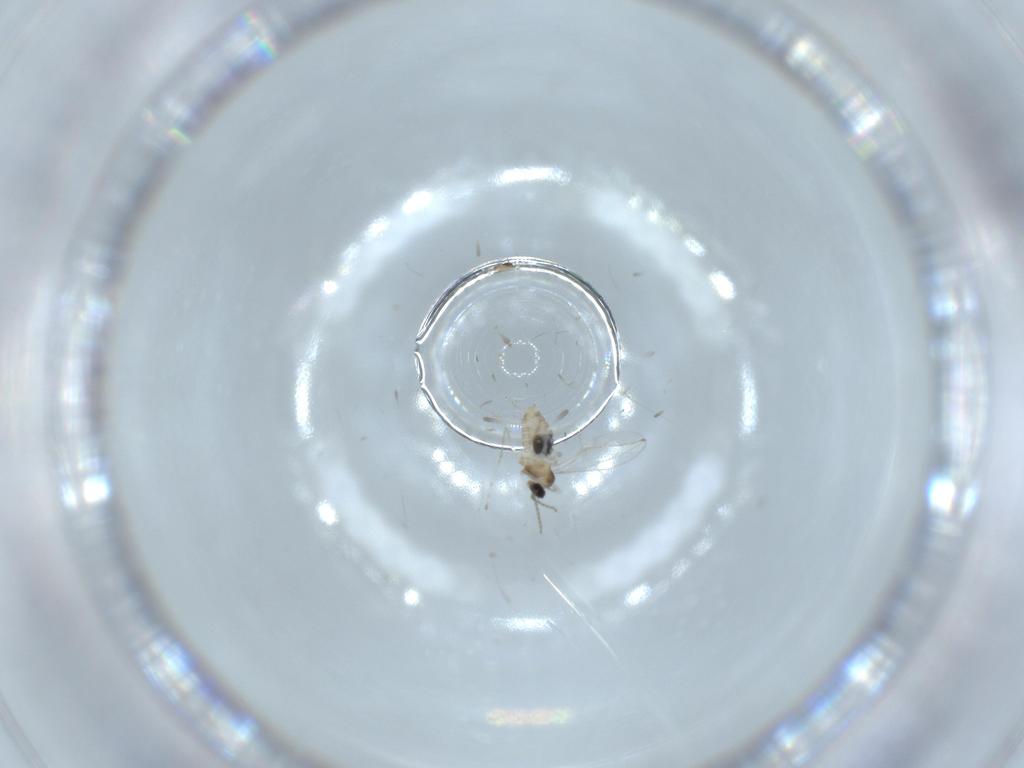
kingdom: Animalia
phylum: Arthropoda
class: Insecta
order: Diptera
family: Cecidomyiidae
